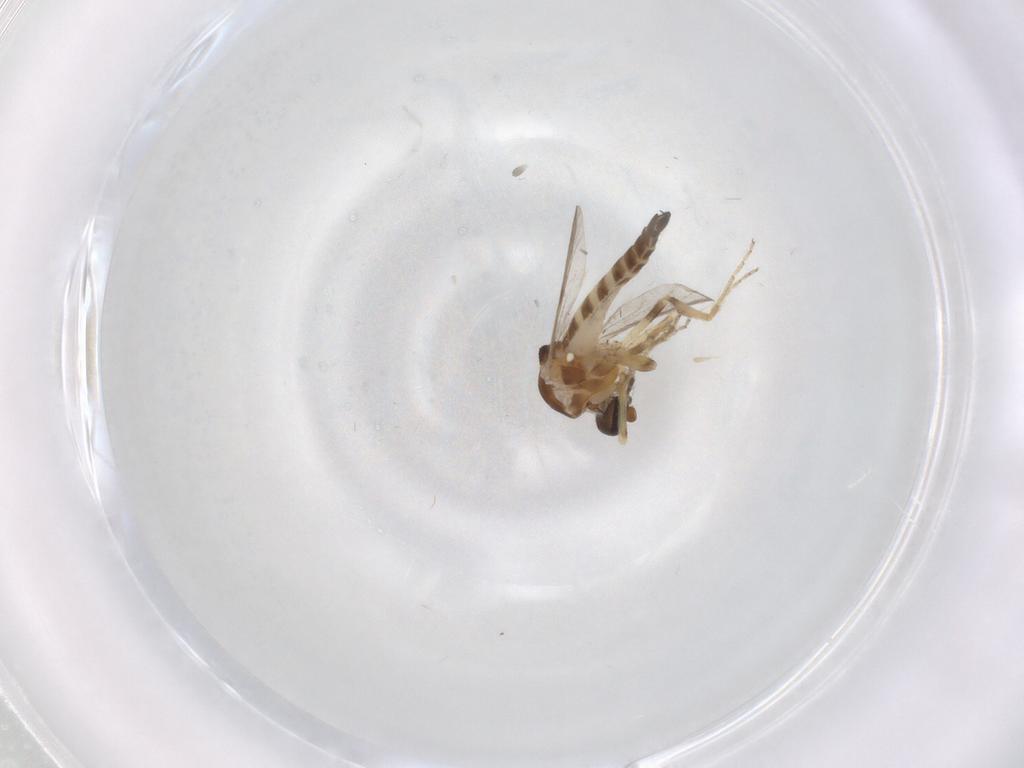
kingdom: Animalia
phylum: Arthropoda
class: Insecta
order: Diptera
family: Ceratopogonidae
